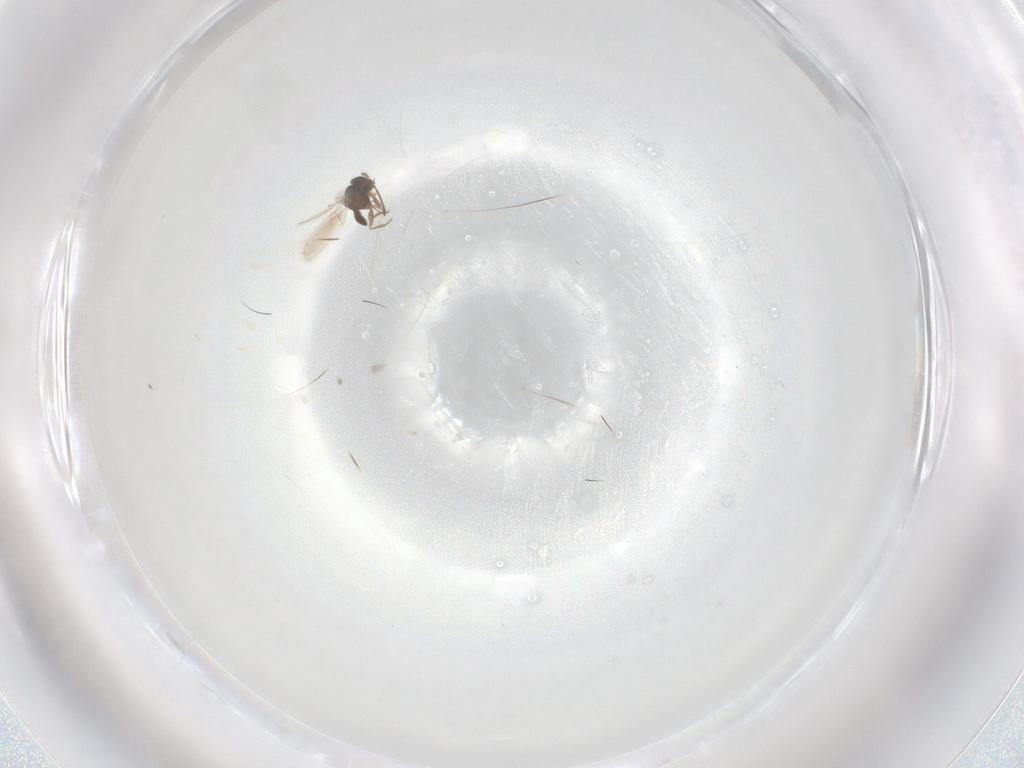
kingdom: Animalia
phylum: Arthropoda
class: Insecta
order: Hymenoptera
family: Scelionidae
